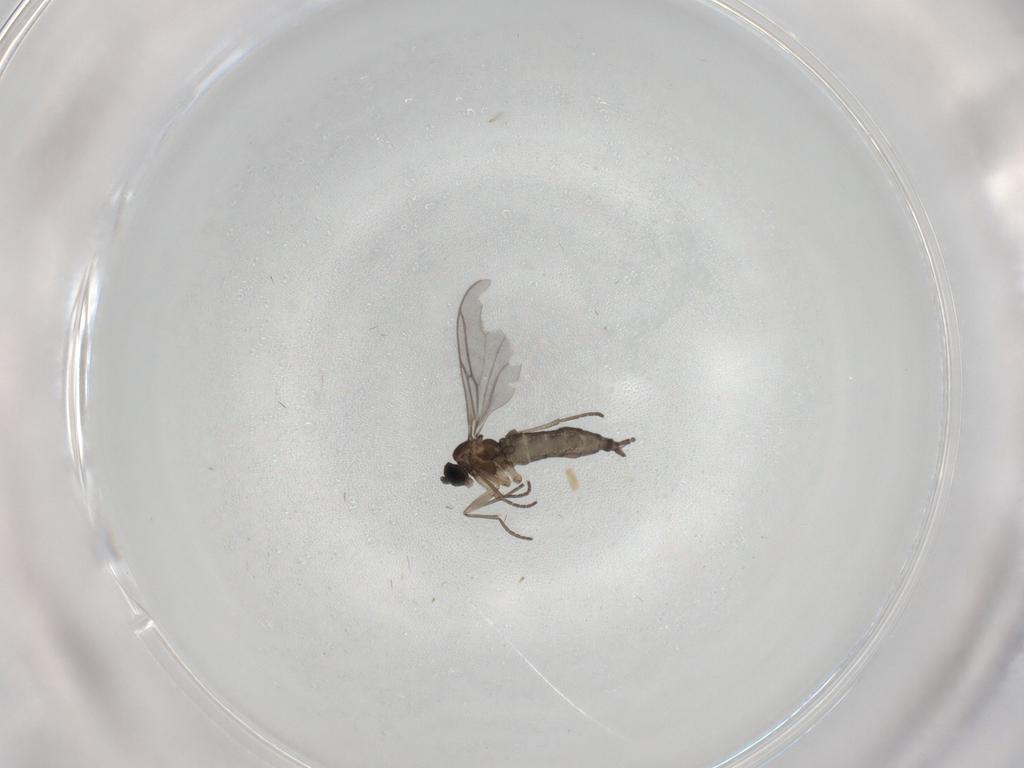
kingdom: Animalia
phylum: Arthropoda
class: Insecta
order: Diptera
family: Sciaridae
